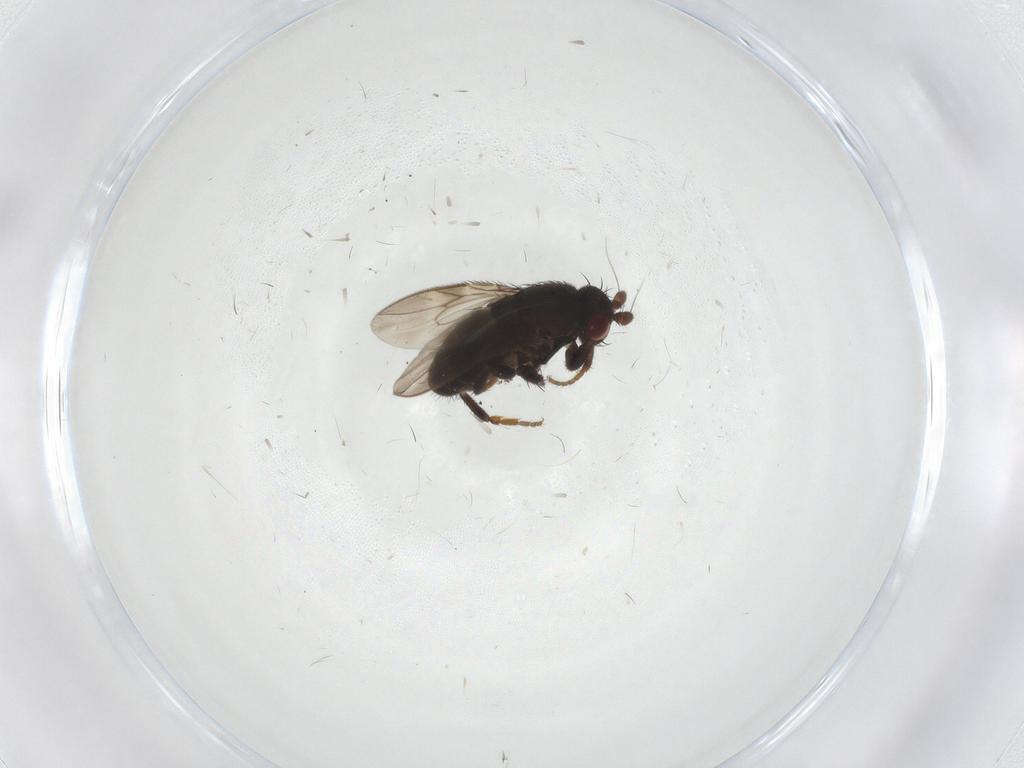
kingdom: Animalia
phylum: Arthropoda
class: Insecta
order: Diptera
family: Sphaeroceridae
